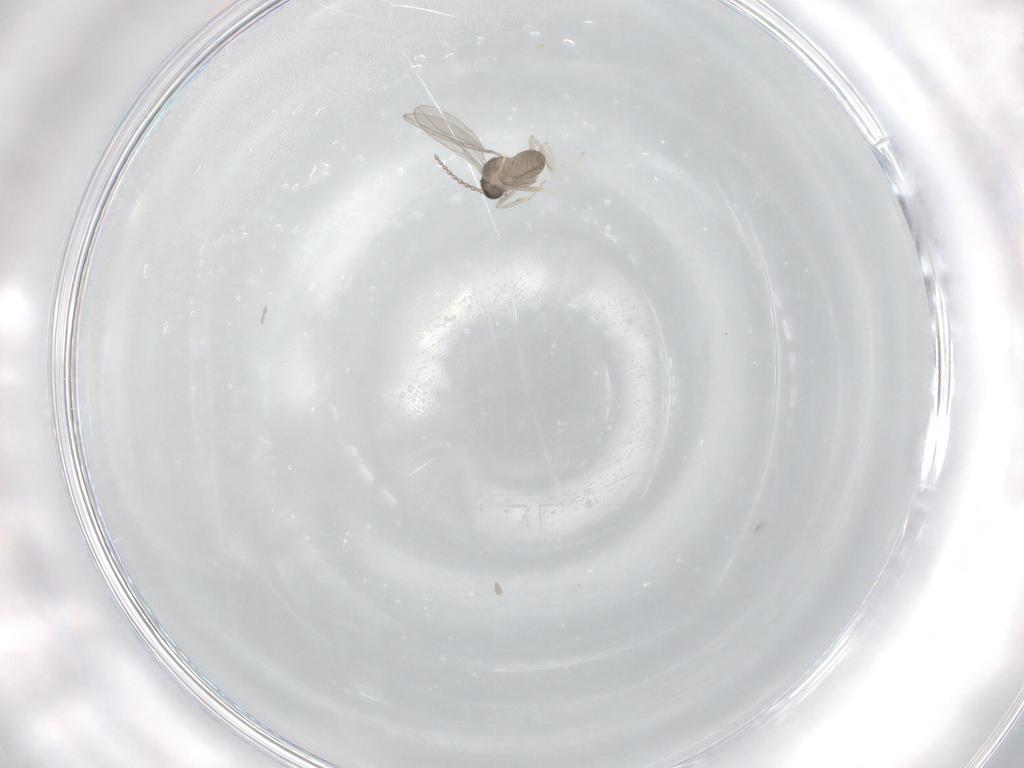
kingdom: Animalia
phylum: Arthropoda
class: Insecta
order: Diptera
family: Cecidomyiidae
